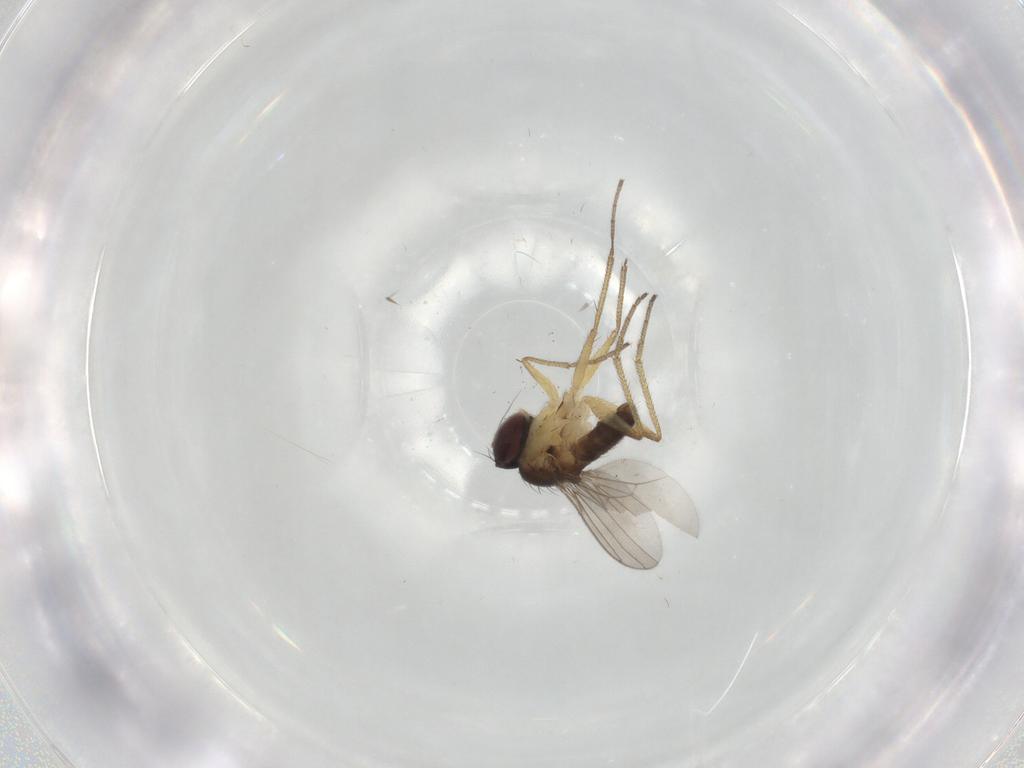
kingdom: Animalia
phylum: Arthropoda
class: Insecta
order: Diptera
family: Dolichopodidae
